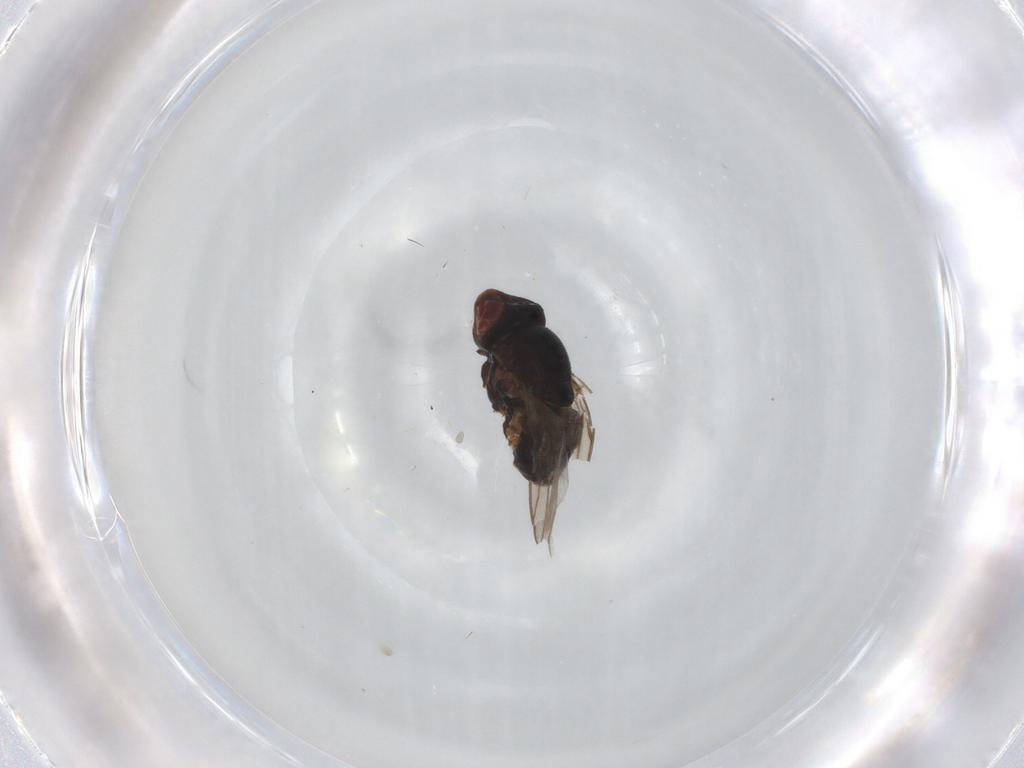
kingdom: Animalia
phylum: Arthropoda
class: Insecta
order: Diptera
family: Chloropidae
